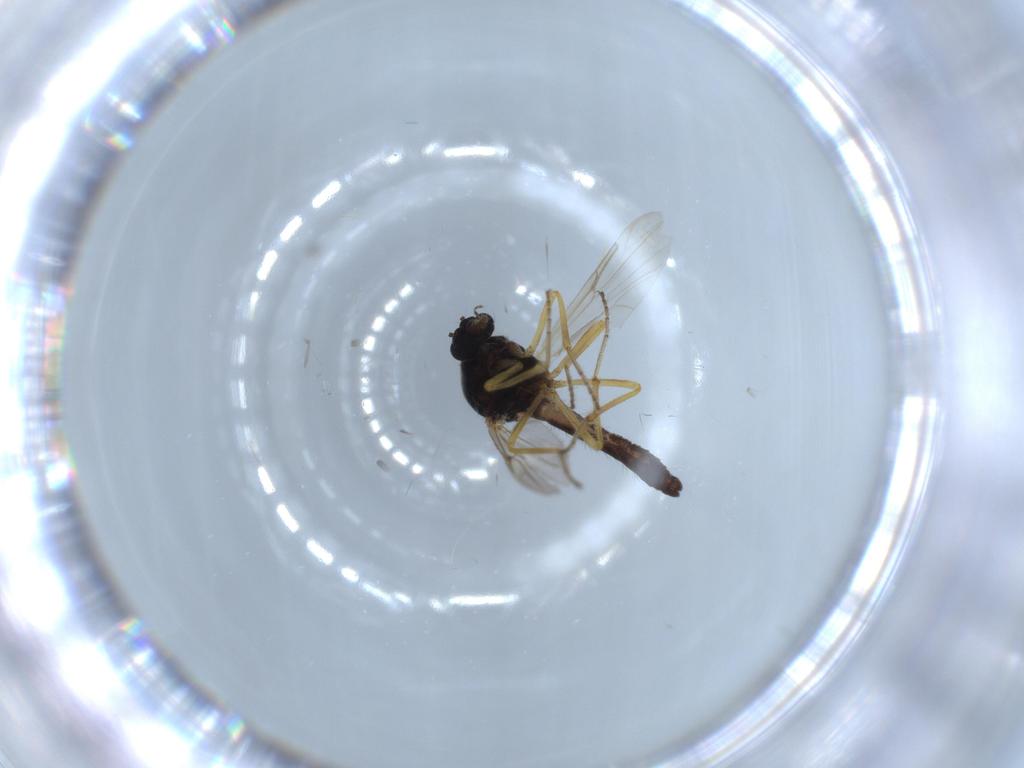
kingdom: Animalia
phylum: Arthropoda
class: Insecta
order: Diptera
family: Ceratopogonidae
